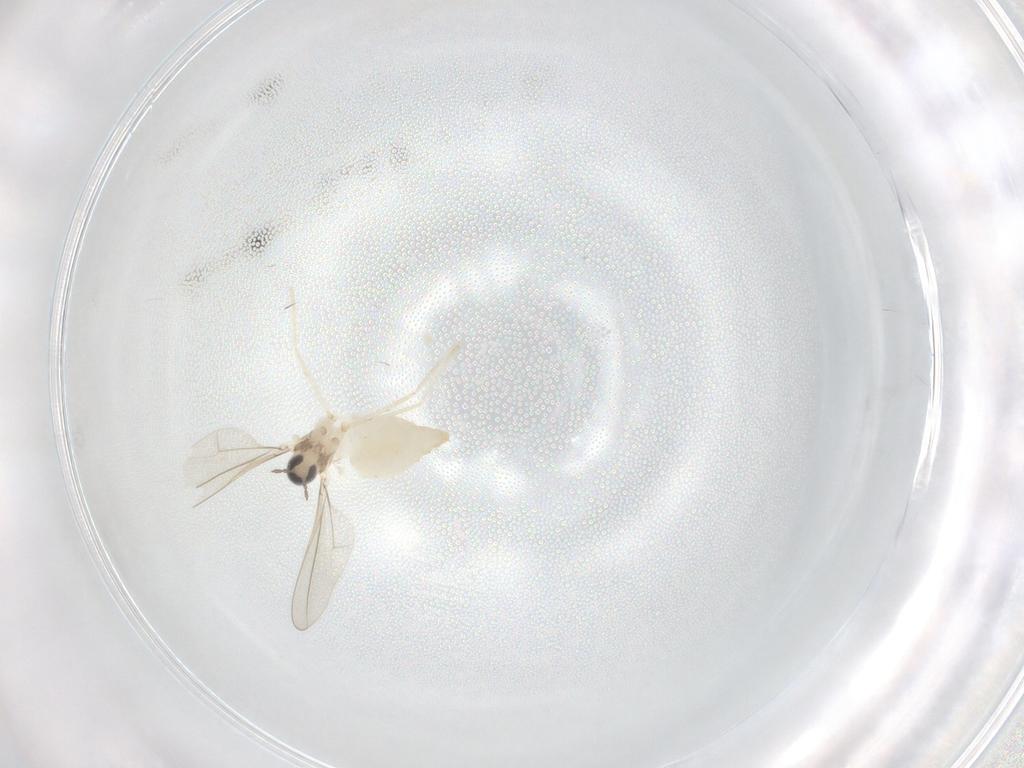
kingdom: Animalia
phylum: Arthropoda
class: Insecta
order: Diptera
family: Cecidomyiidae
